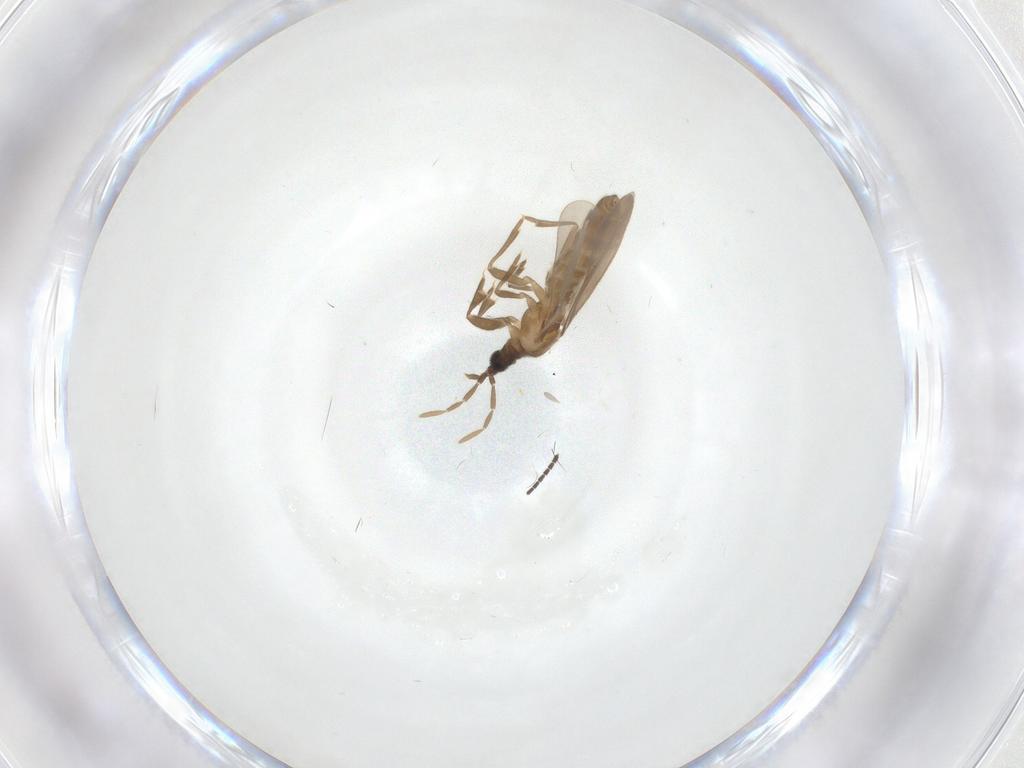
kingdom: Animalia
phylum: Arthropoda
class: Insecta
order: Hemiptera
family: Enicocephalidae
